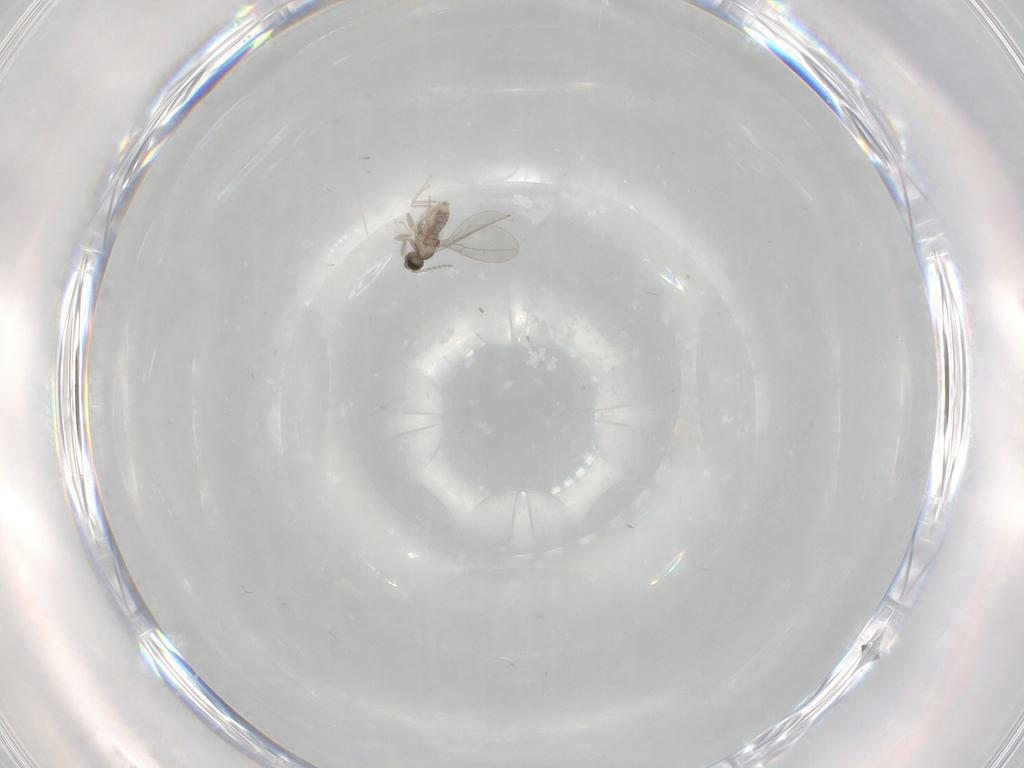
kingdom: Animalia
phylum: Arthropoda
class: Insecta
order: Diptera
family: Cecidomyiidae
